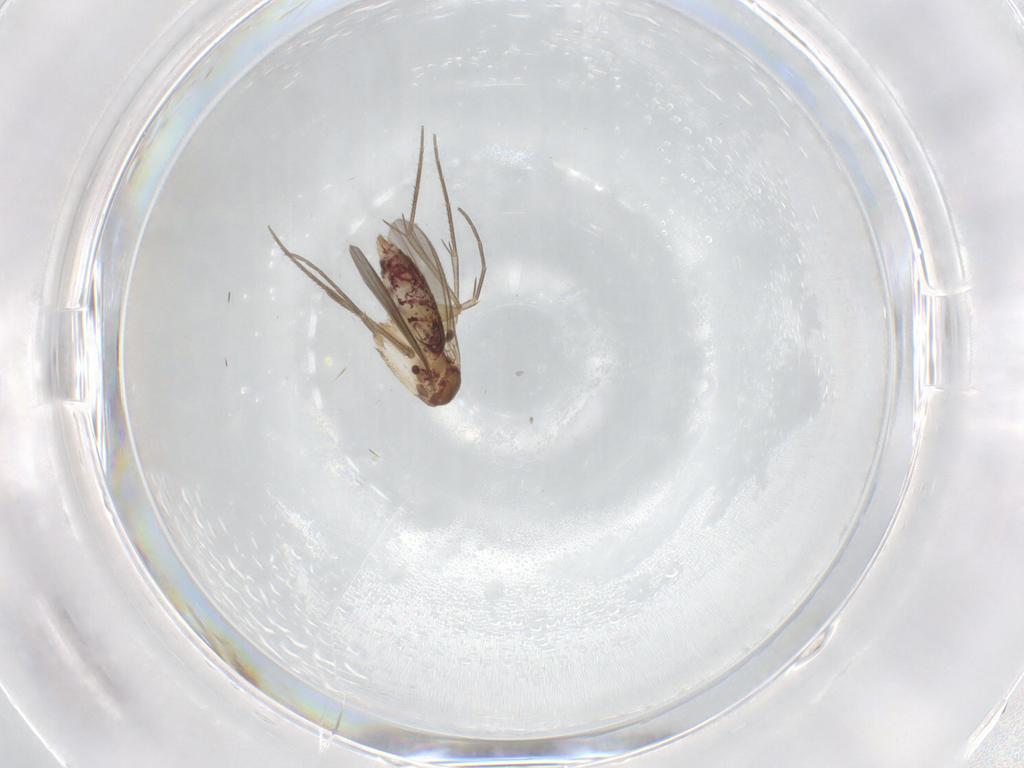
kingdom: Animalia
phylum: Arthropoda
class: Insecta
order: Diptera
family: Mycetophilidae
